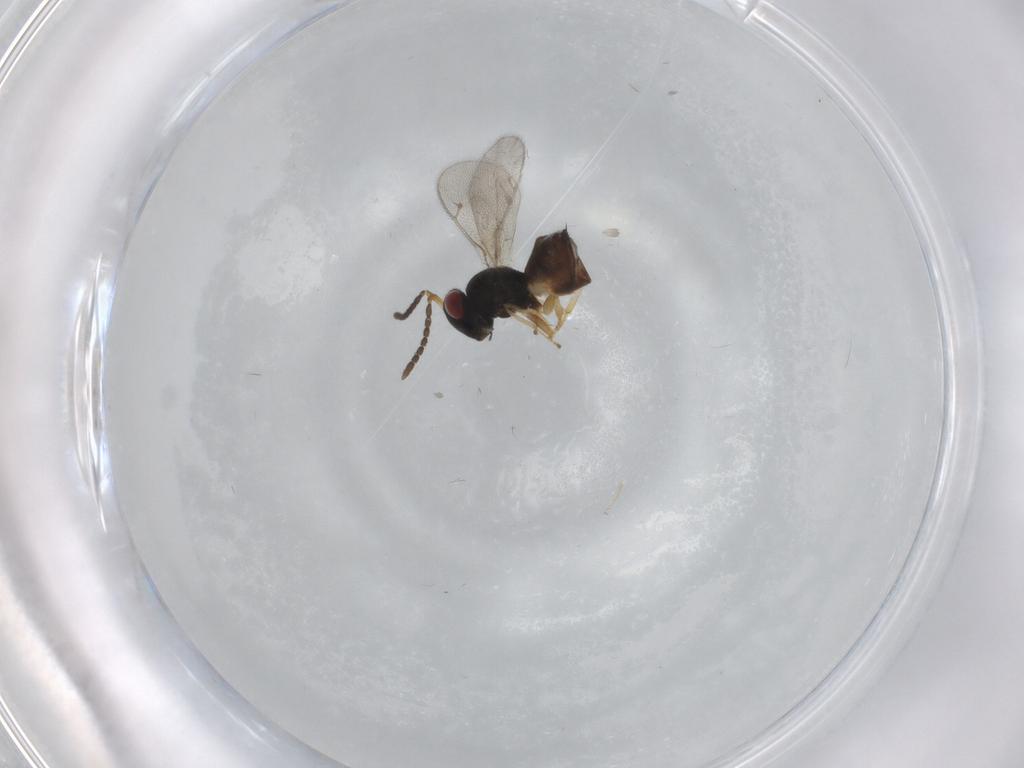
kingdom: Animalia
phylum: Arthropoda
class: Insecta
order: Hymenoptera
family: Scelionidae
